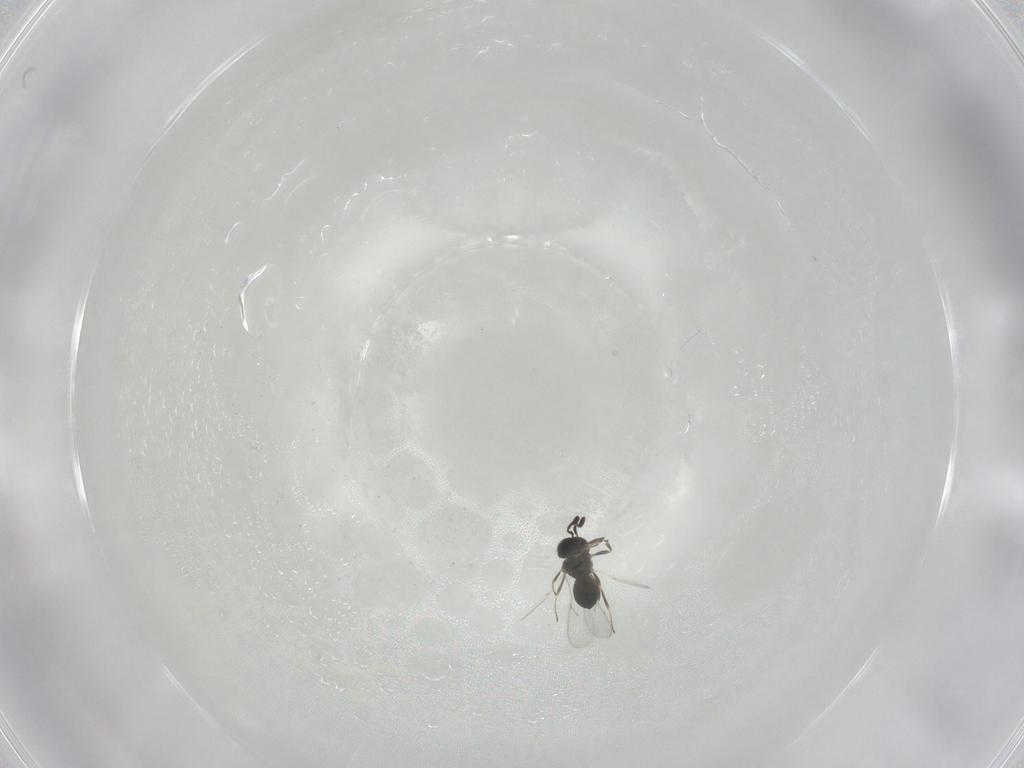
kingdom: Animalia
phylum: Arthropoda
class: Insecta
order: Hymenoptera
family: Scelionidae
